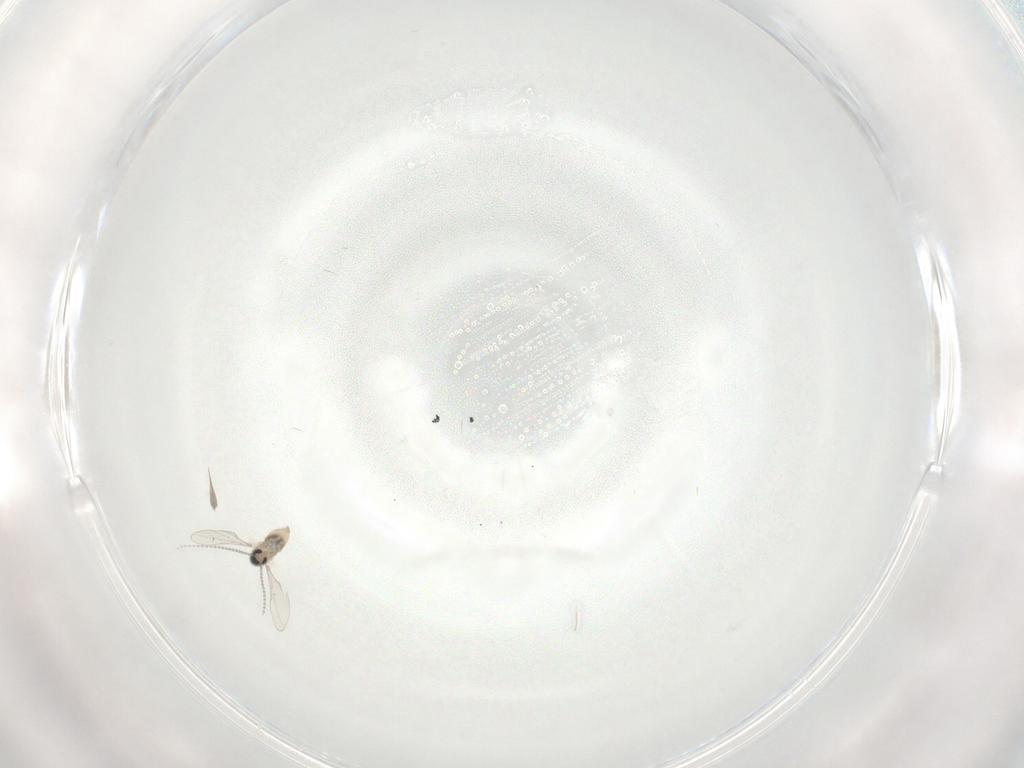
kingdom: Animalia
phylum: Arthropoda
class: Insecta
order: Diptera
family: Cecidomyiidae
